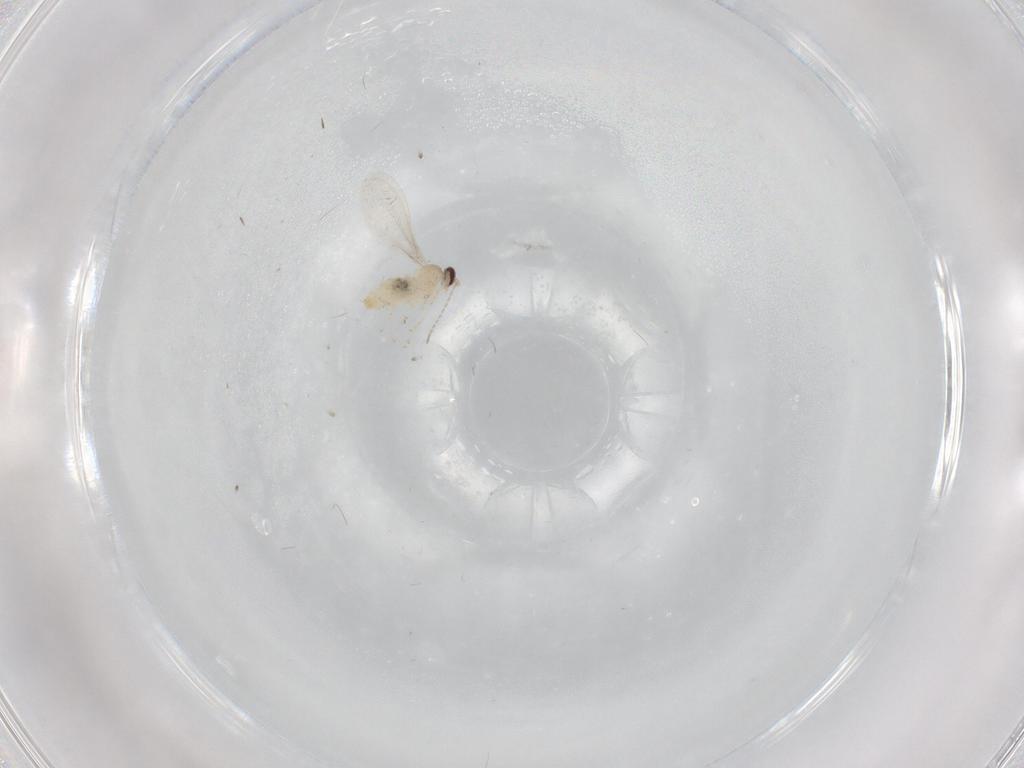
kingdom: Animalia
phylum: Arthropoda
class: Insecta
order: Diptera
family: Cecidomyiidae
